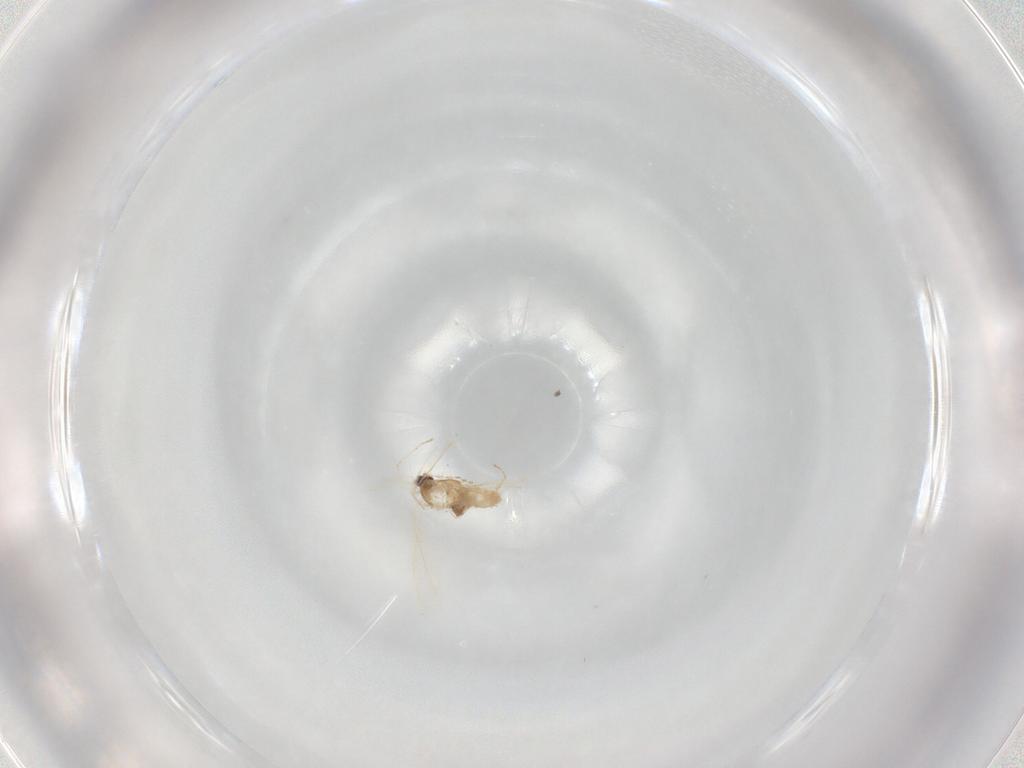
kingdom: Animalia
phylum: Arthropoda
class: Insecta
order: Diptera
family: Ceratopogonidae
